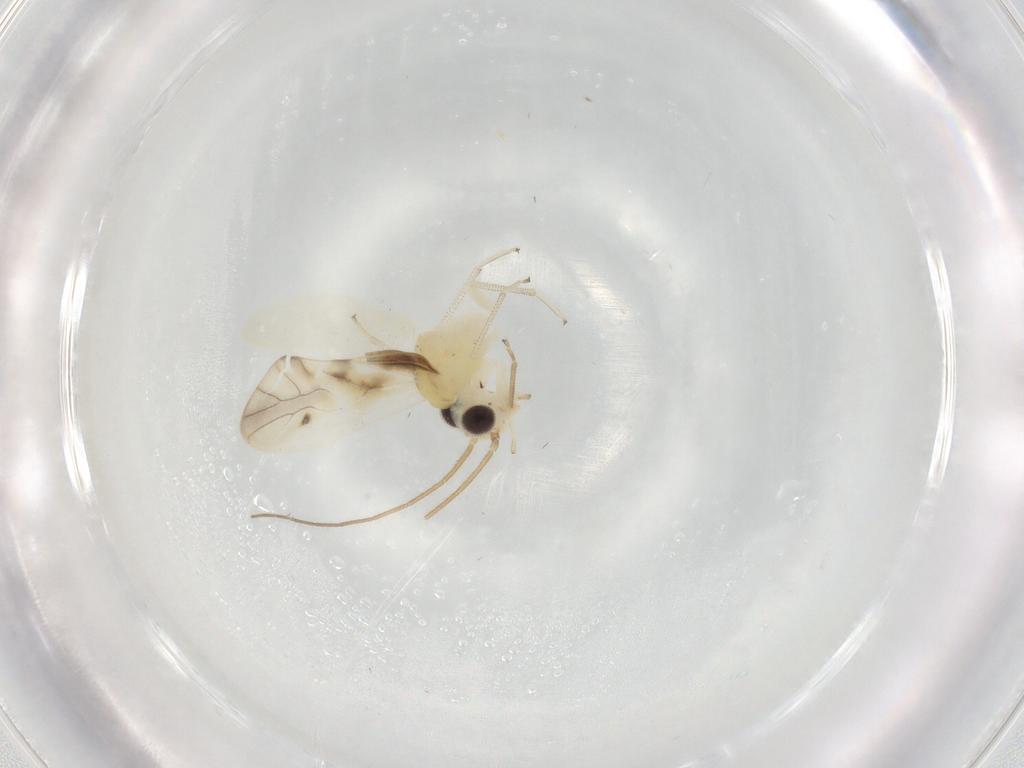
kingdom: Animalia
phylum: Arthropoda
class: Insecta
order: Psocodea
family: Caeciliusidae
